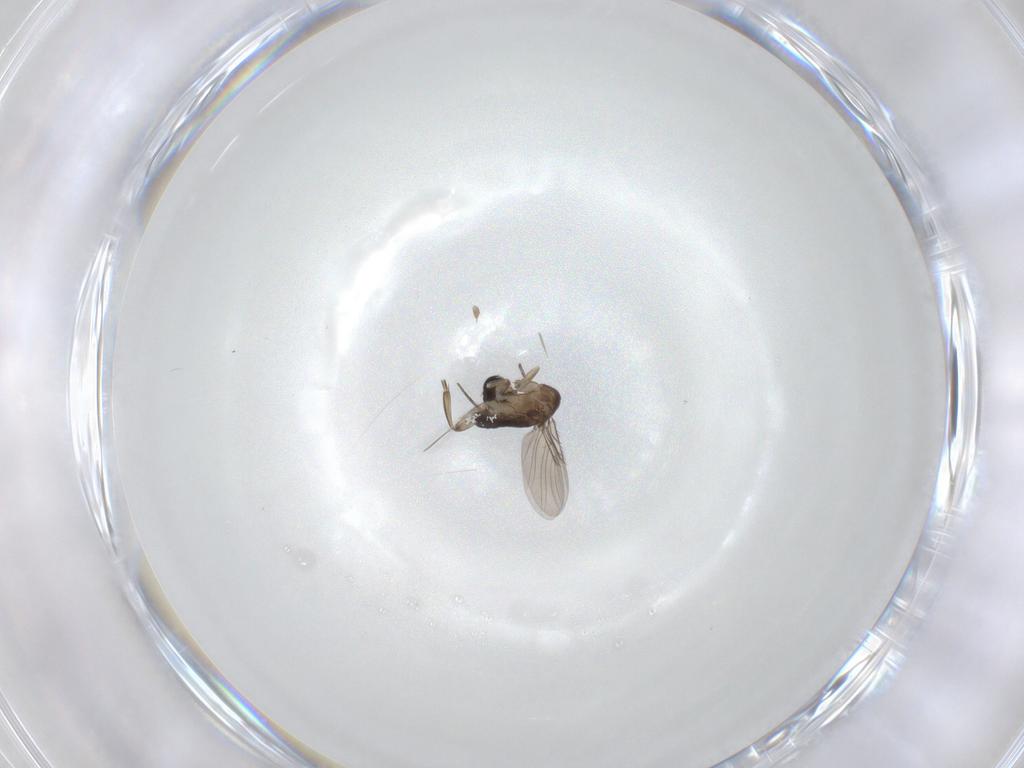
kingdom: Animalia
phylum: Arthropoda
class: Insecta
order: Diptera
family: Phoridae
